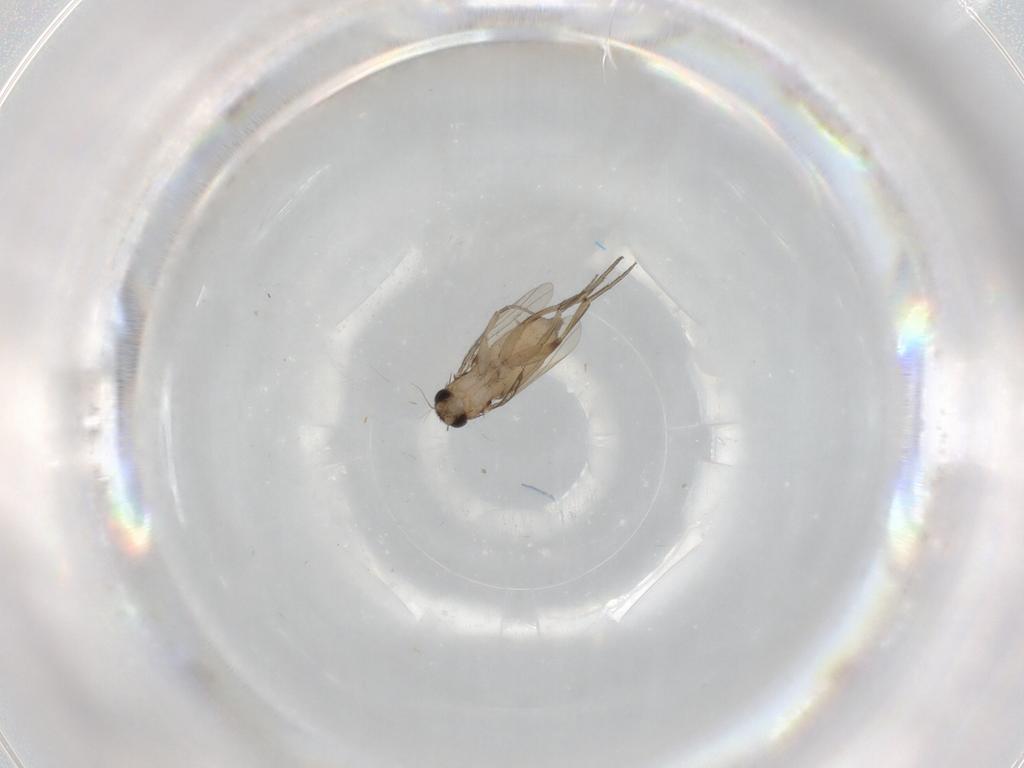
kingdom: Animalia
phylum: Arthropoda
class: Insecta
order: Diptera
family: Phoridae
